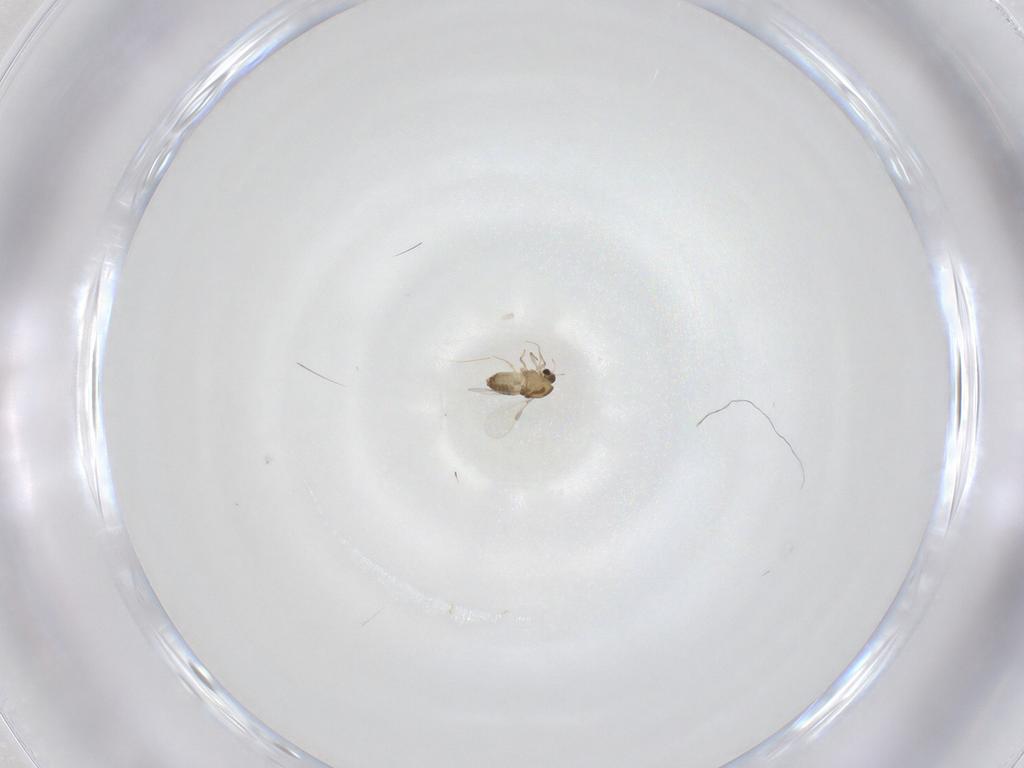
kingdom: Animalia
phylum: Arthropoda
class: Insecta
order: Diptera
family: Chironomidae
